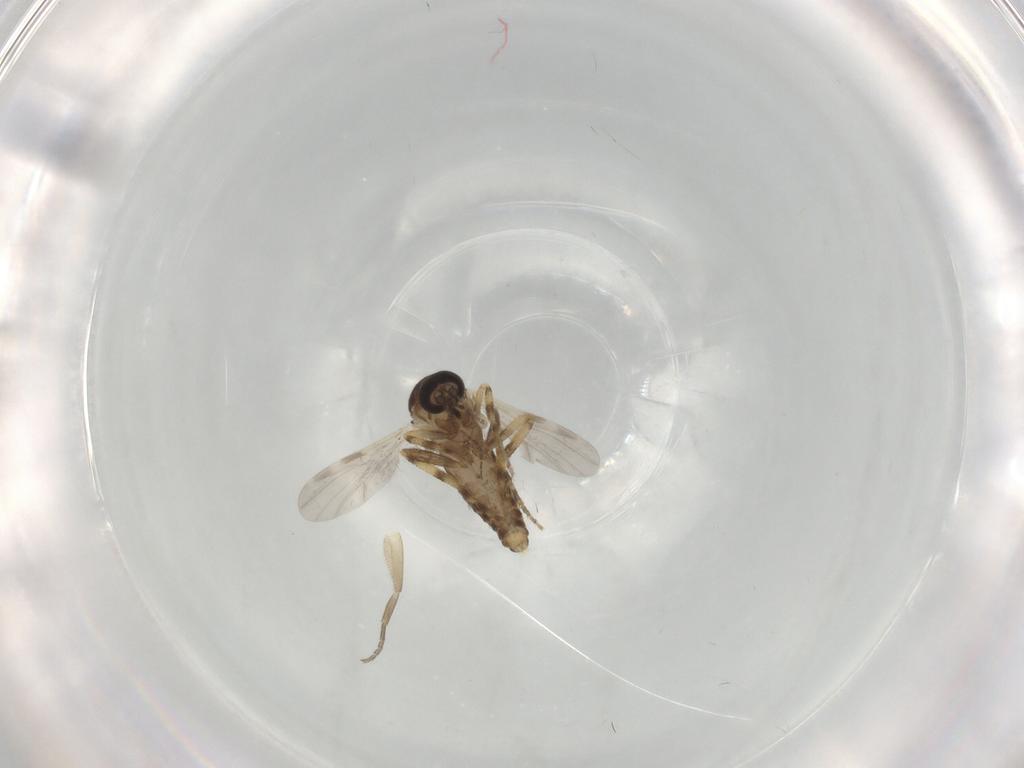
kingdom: Animalia
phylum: Arthropoda
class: Insecta
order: Diptera
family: Ceratopogonidae
